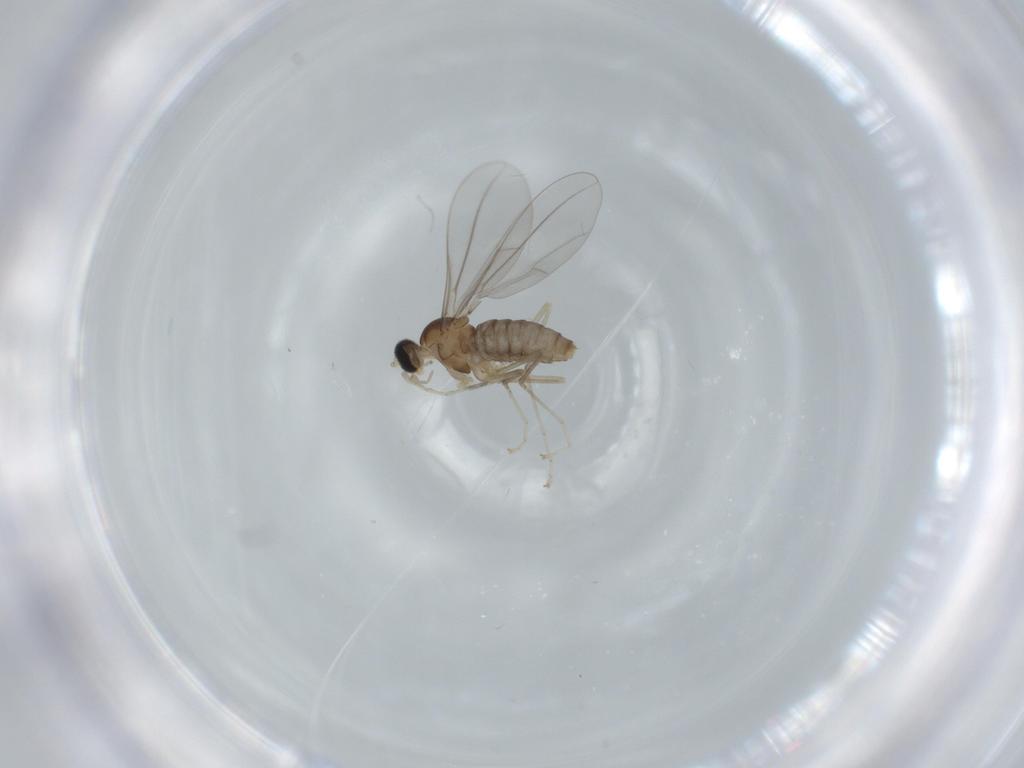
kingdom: Animalia
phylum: Arthropoda
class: Insecta
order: Diptera
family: Cecidomyiidae
